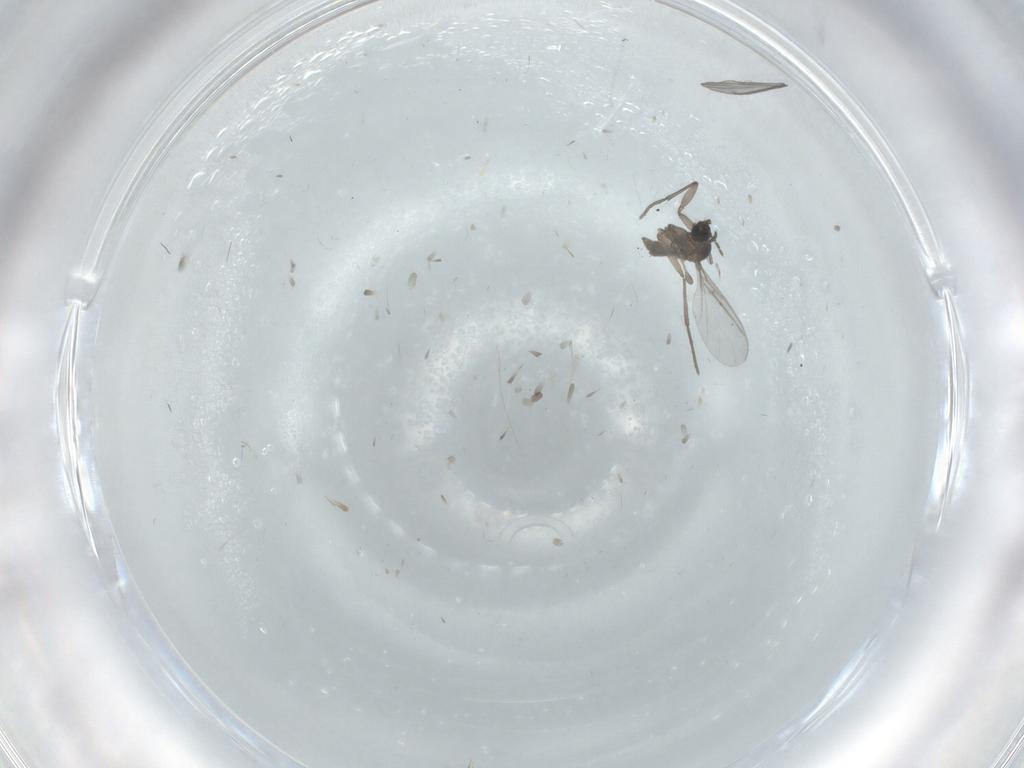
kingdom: Animalia
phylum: Arthropoda
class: Insecta
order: Diptera
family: Sciaridae
